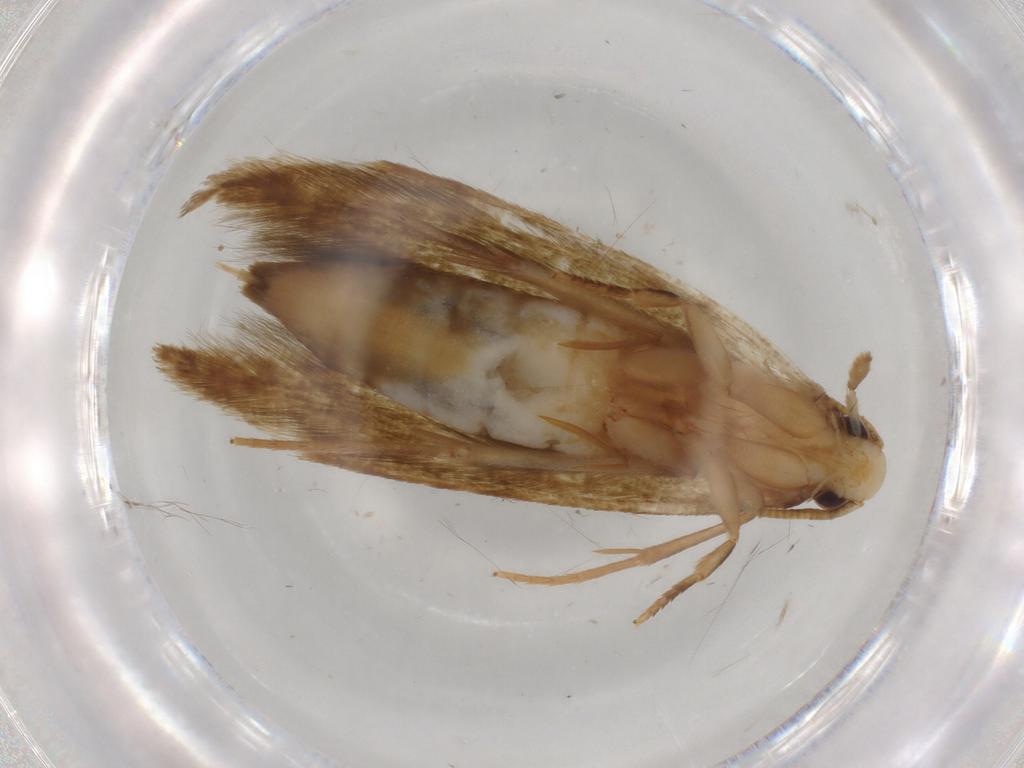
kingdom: Animalia
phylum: Arthropoda
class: Insecta
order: Lepidoptera
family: Tineidae
